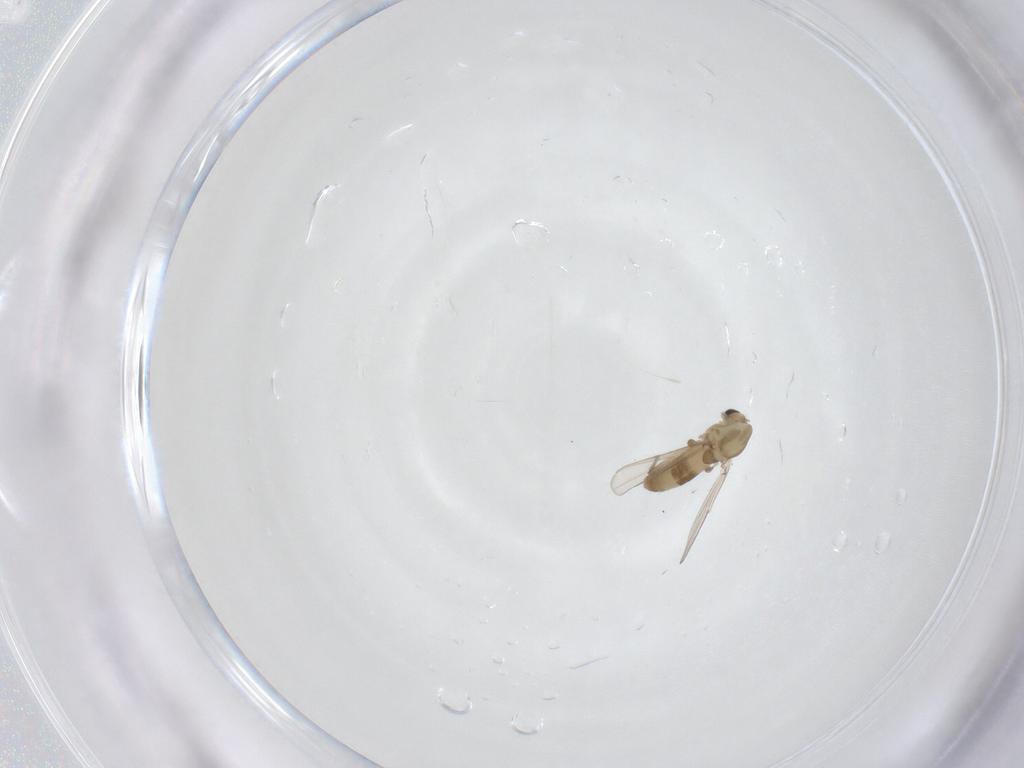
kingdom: Animalia
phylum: Arthropoda
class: Insecta
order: Diptera
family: Chironomidae
